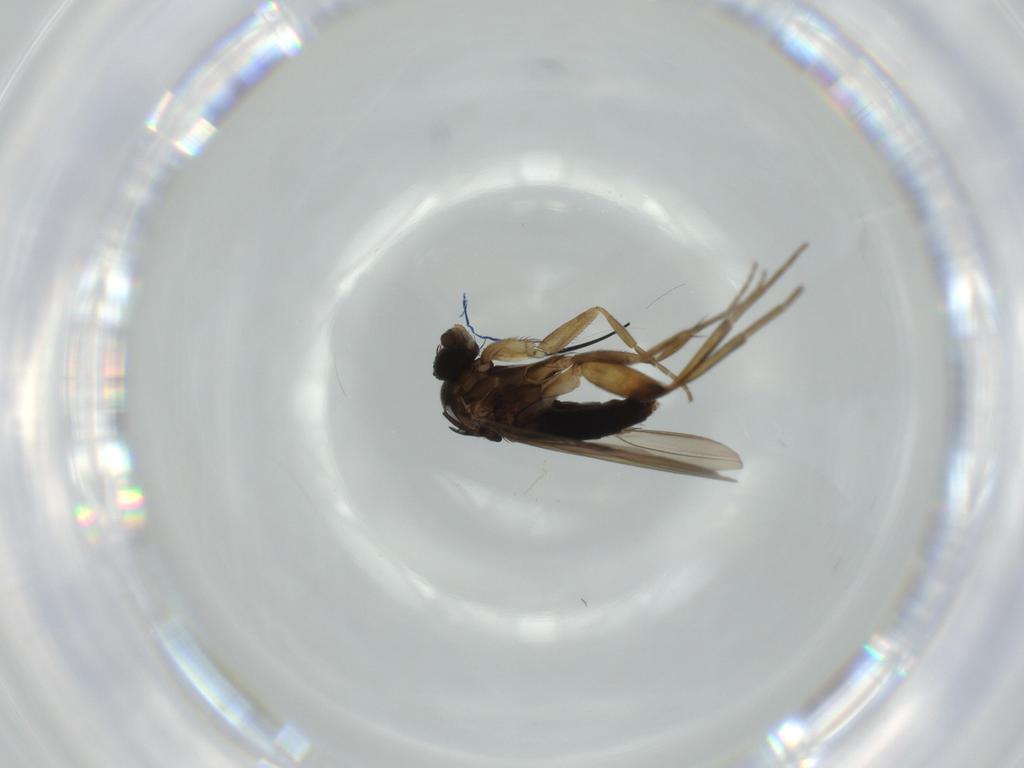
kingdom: Animalia
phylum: Arthropoda
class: Insecta
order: Diptera
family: Phoridae
